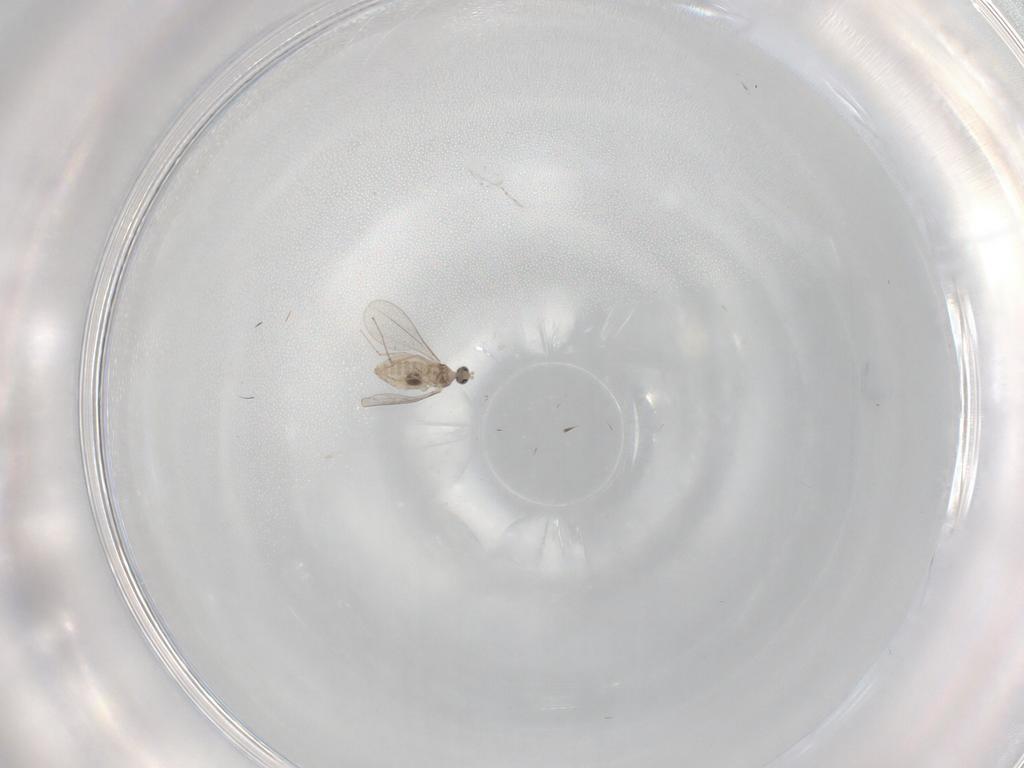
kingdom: Animalia
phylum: Arthropoda
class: Insecta
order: Diptera
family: Cecidomyiidae
